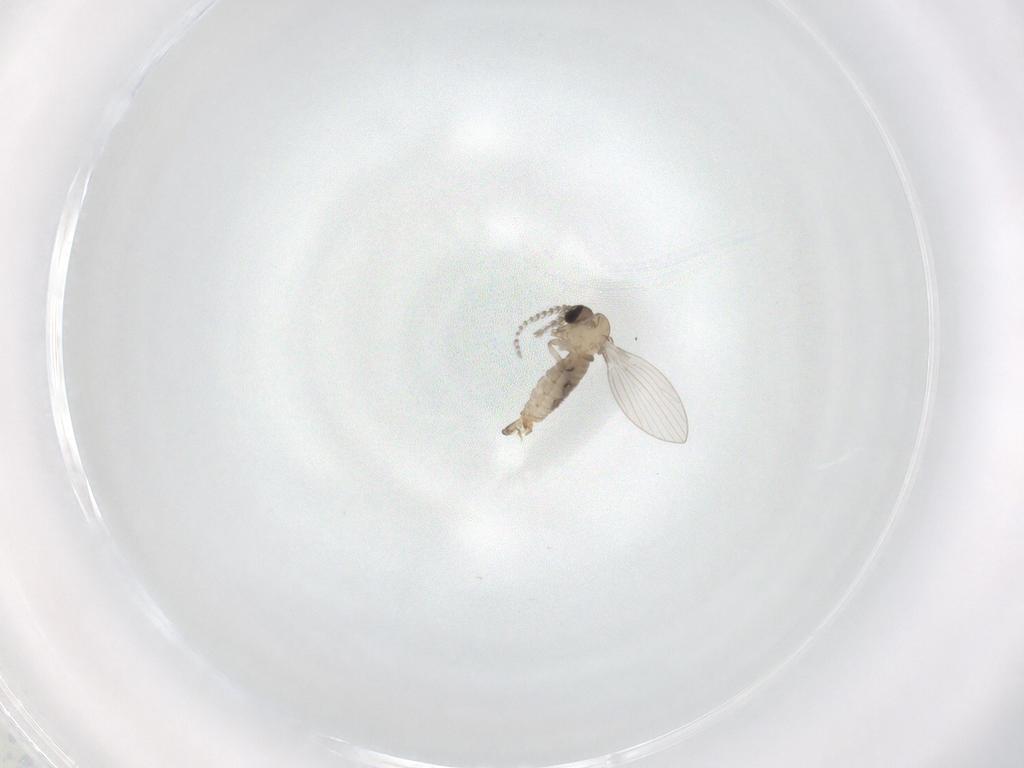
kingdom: Animalia
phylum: Arthropoda
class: Insecta
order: Diptera
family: Psychodidae
